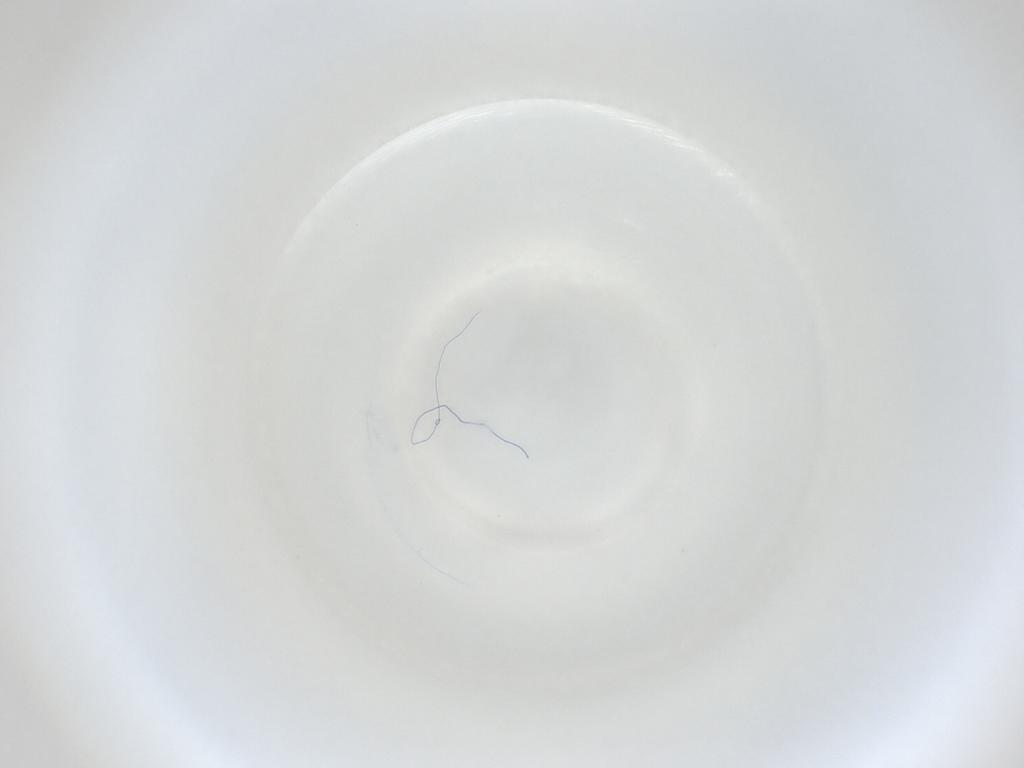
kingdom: Animalia
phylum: Arthropoda
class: Insecta
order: Diptera
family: Cecidomyiidae
